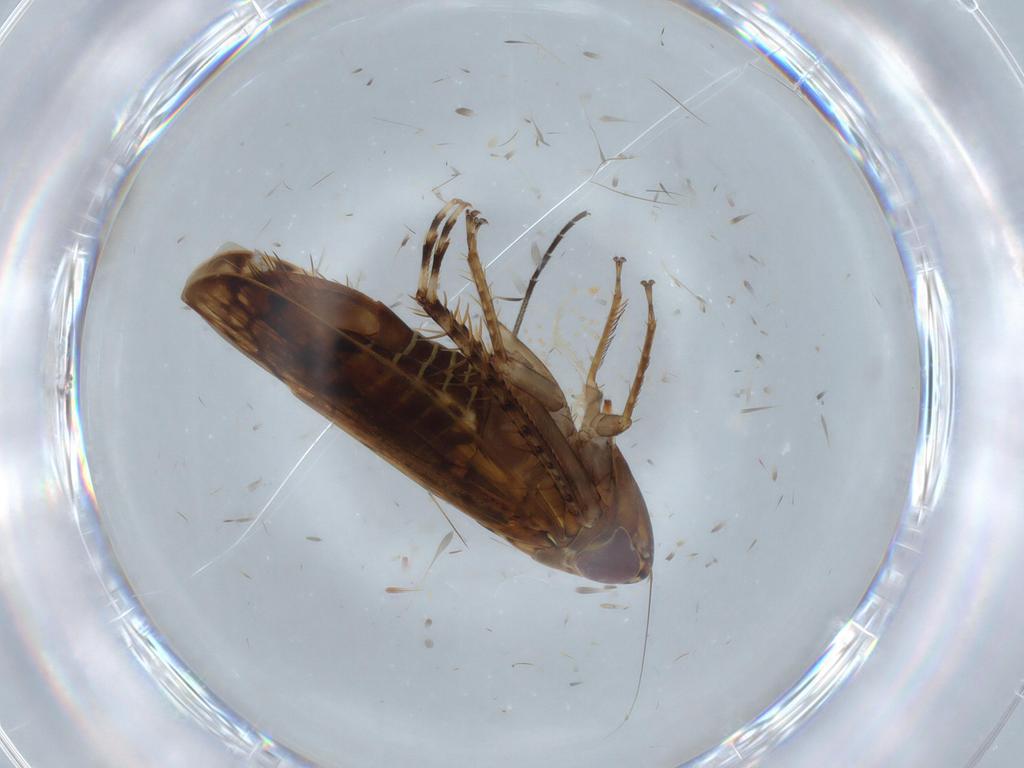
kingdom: Animalia
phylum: Arthropoda
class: Insecta
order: Hemiptera
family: Cicadellidae
